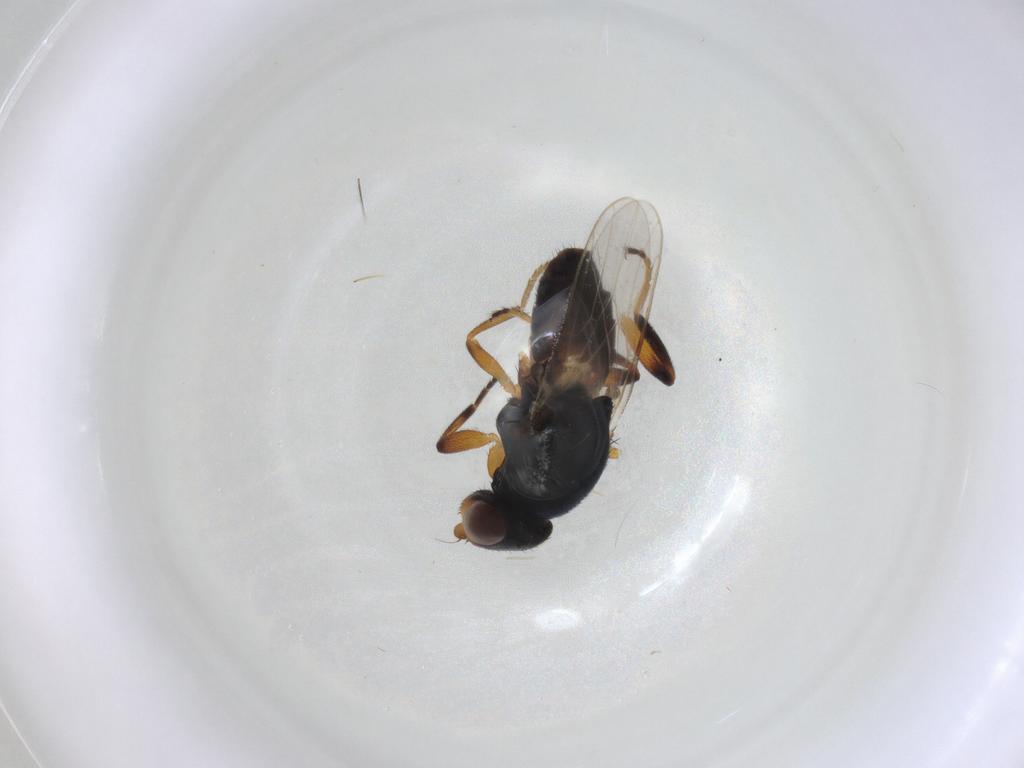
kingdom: Animalia
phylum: Arthropoda
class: Insecta
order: Diptera
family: Chloropidae
